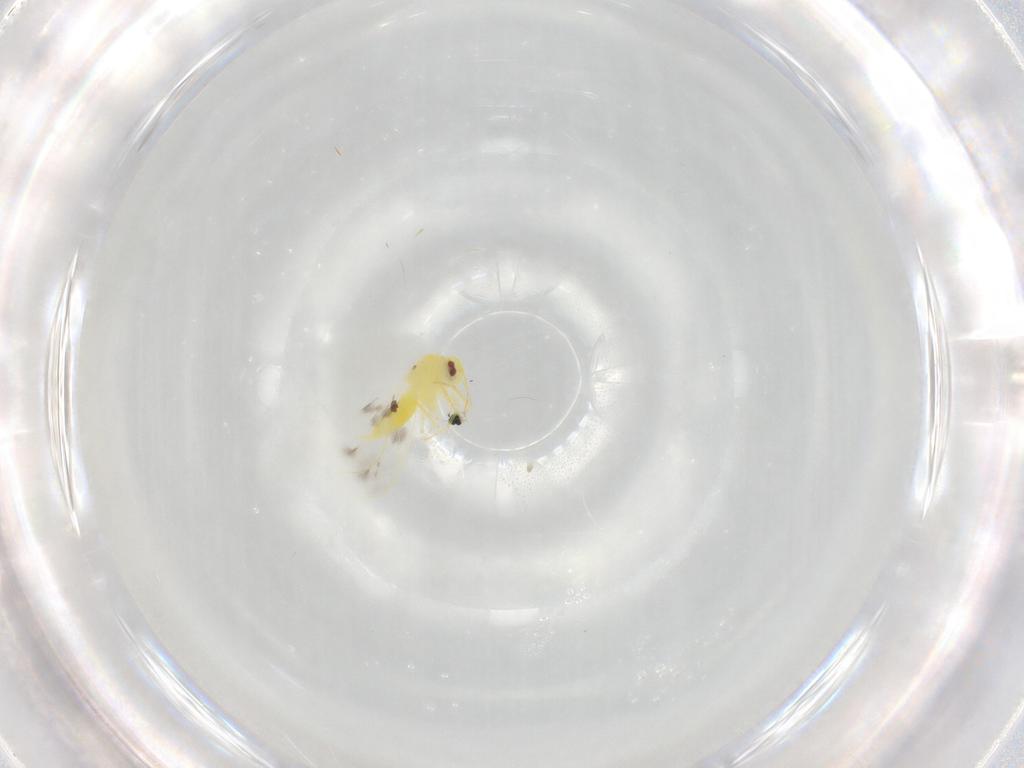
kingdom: Animalia
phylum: Arthropoda
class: Insecta
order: Hemiptera
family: Aleyrodidae
